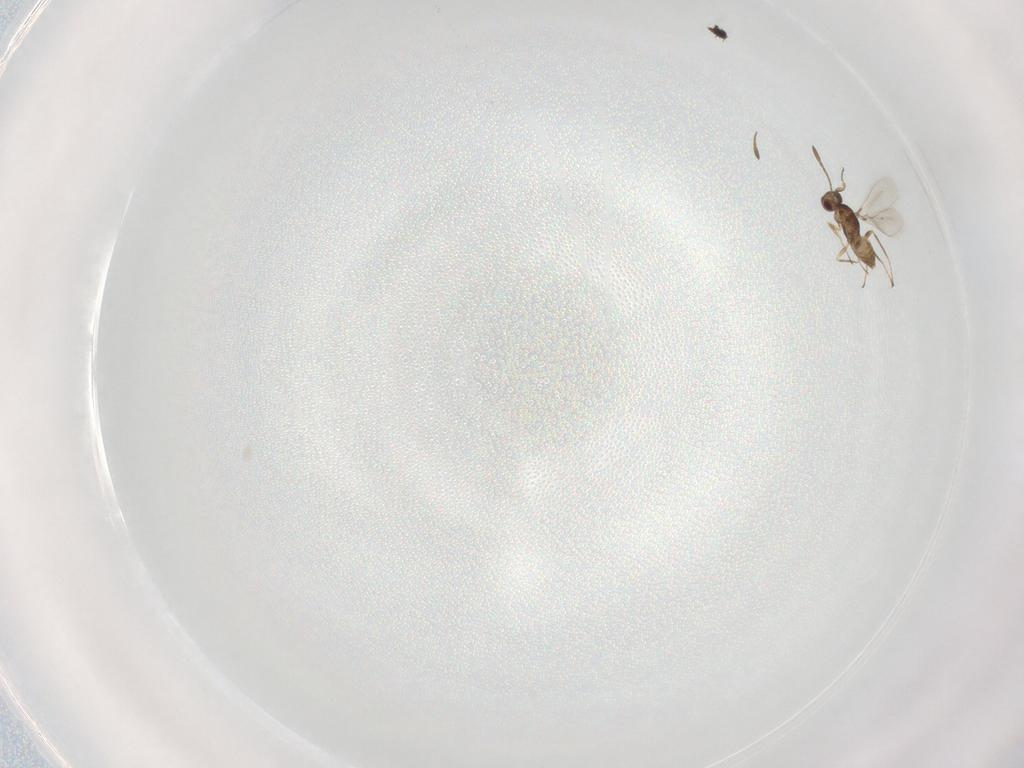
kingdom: Animalia
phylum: Arthropoda
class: Insecta
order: Hymenoptera
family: Mymaridae
